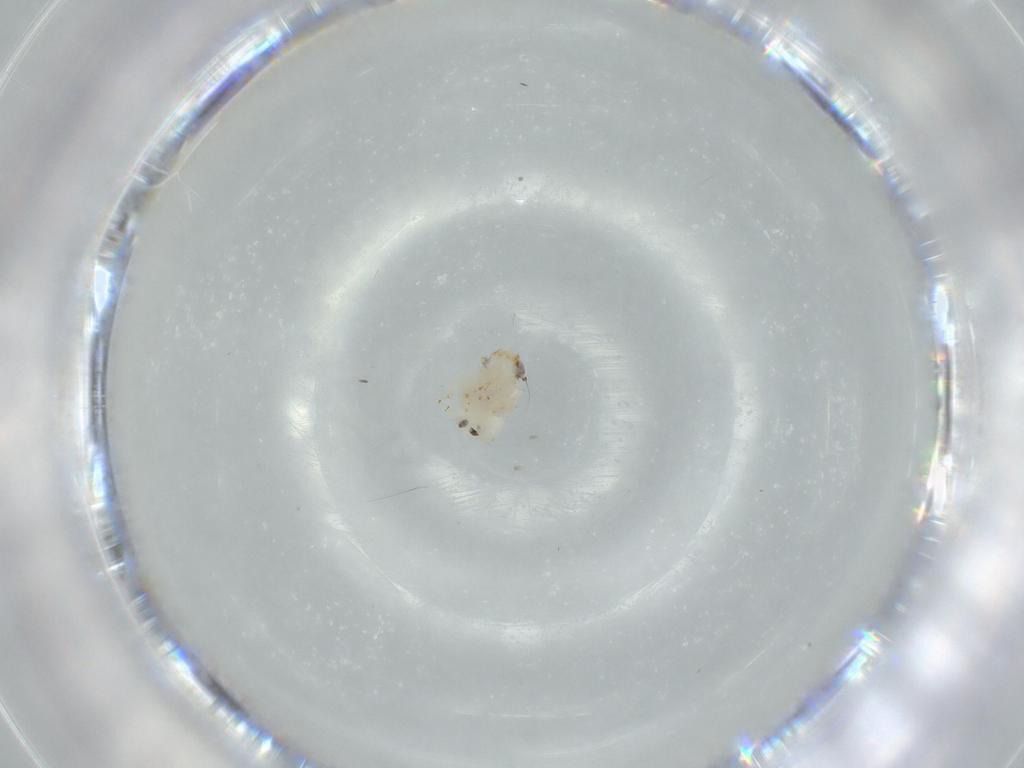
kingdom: Animalia
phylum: Arthropoda
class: Insecta
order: Hemiptera
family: Nogodinidae
